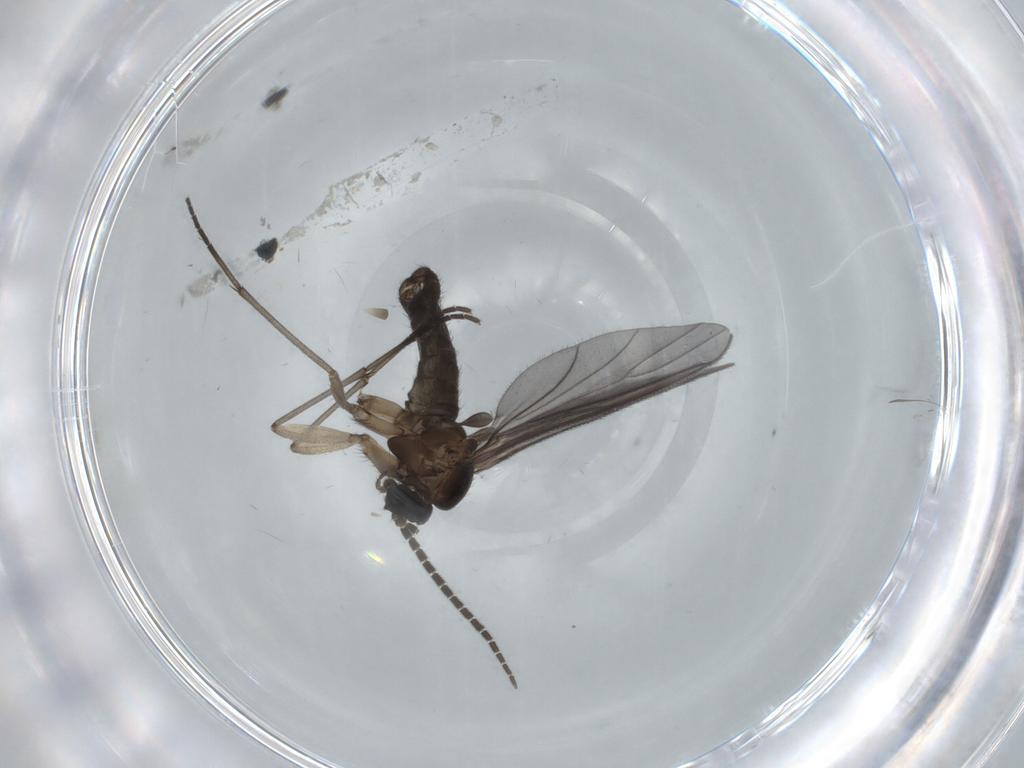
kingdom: Animalia
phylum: Arthropoda
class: Insecta
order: Diptera
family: Sciaridae
